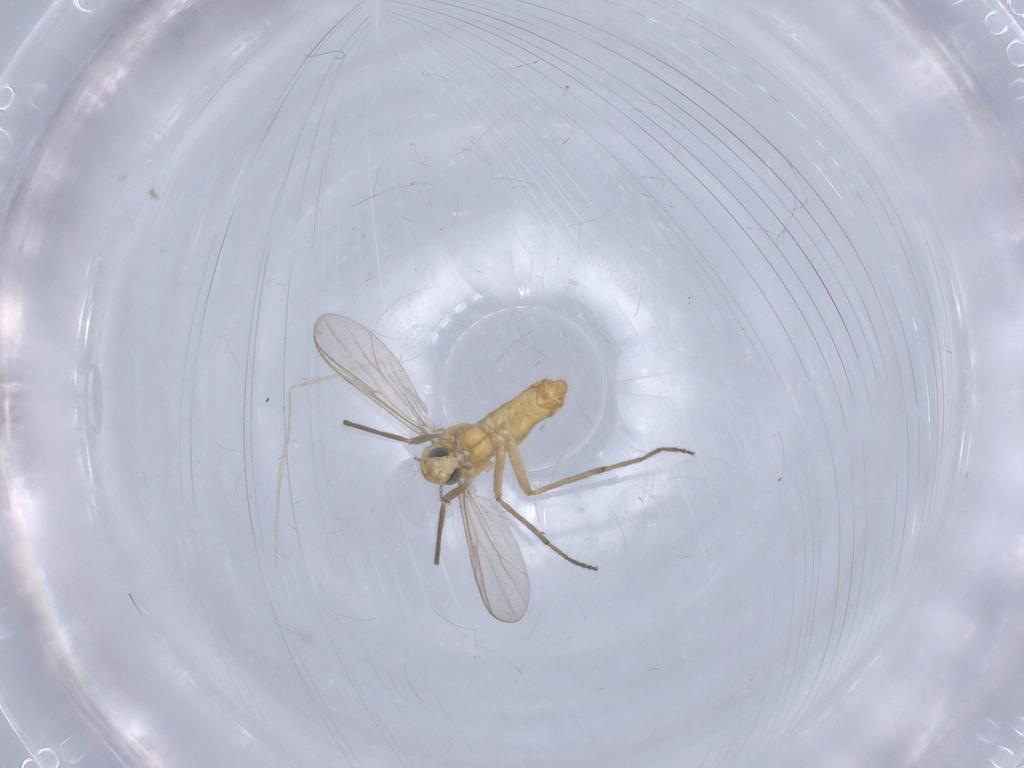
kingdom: Animalia
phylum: Arthropoda
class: Insecta
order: Diptera
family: Chironomidae
